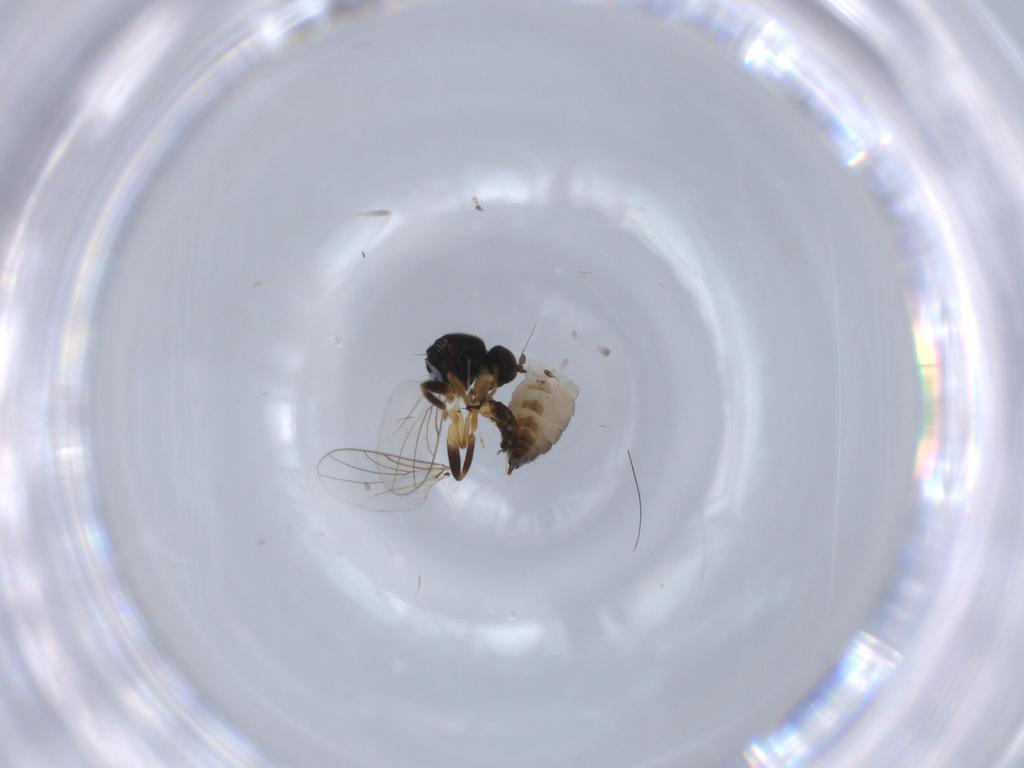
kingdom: Animalia
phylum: Arthropoda
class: Insecta
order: Diptera
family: Hybotidae
